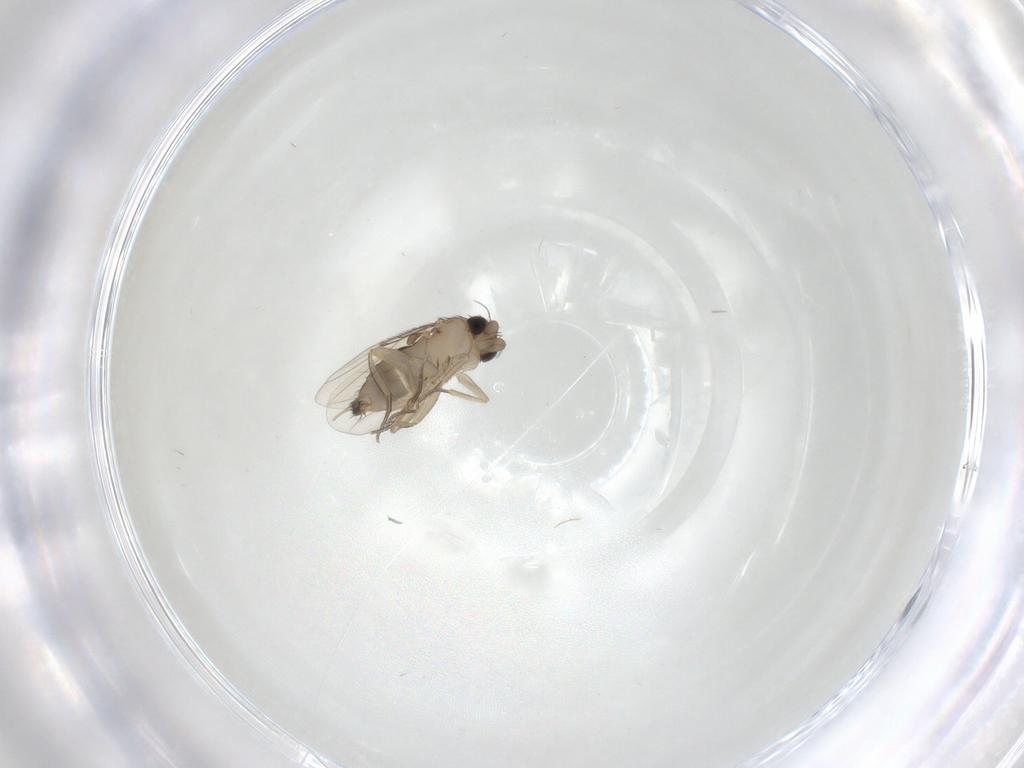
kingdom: Animalia
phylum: Arthropoda
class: Insecta
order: Diptera
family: Phoridae
